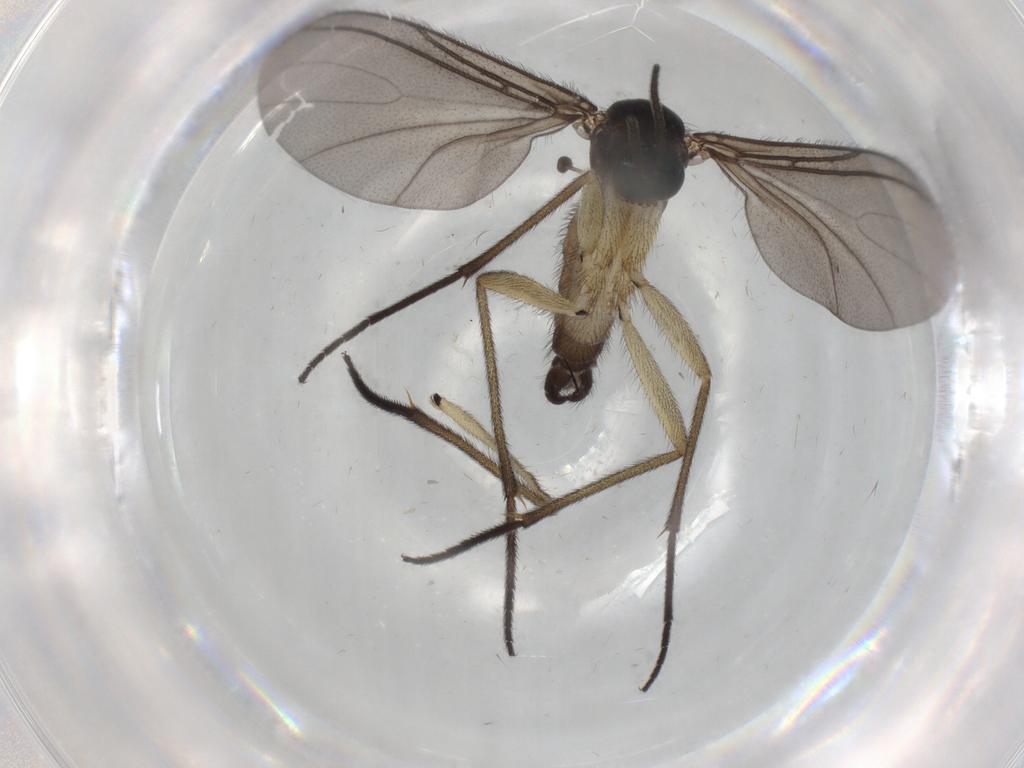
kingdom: Animalia
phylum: Arthropoda
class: Insecta
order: Diptera
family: Sciaridae
